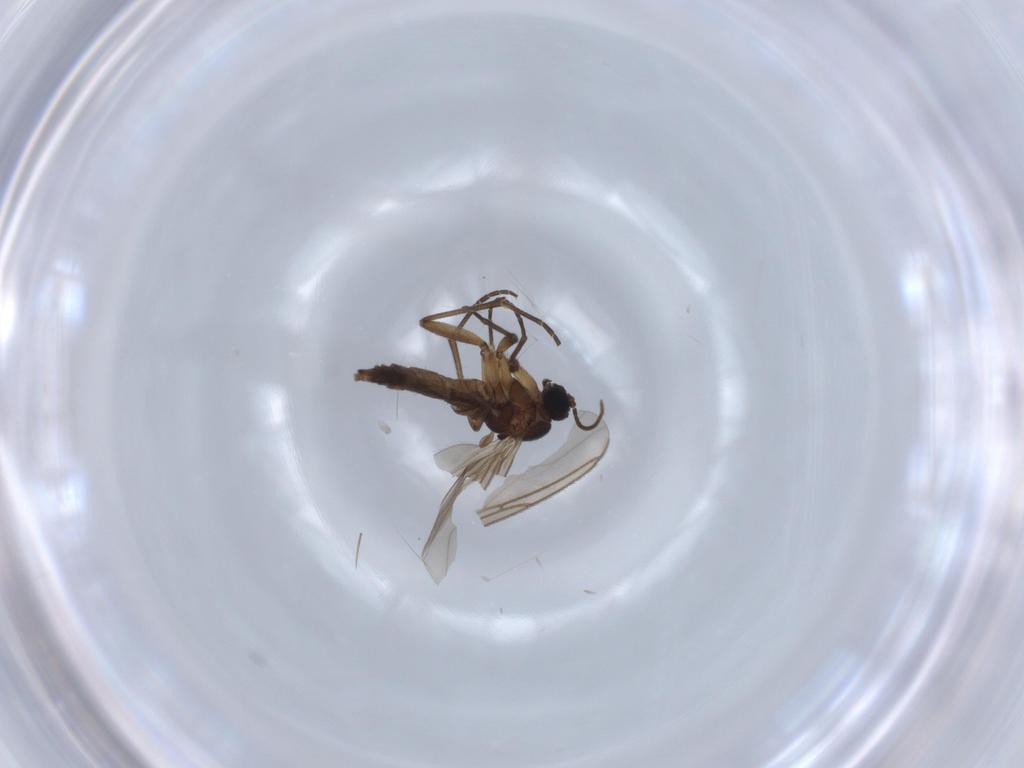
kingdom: Animalia
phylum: Arthropoda
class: Insecta
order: Diptera
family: Sciaridae
